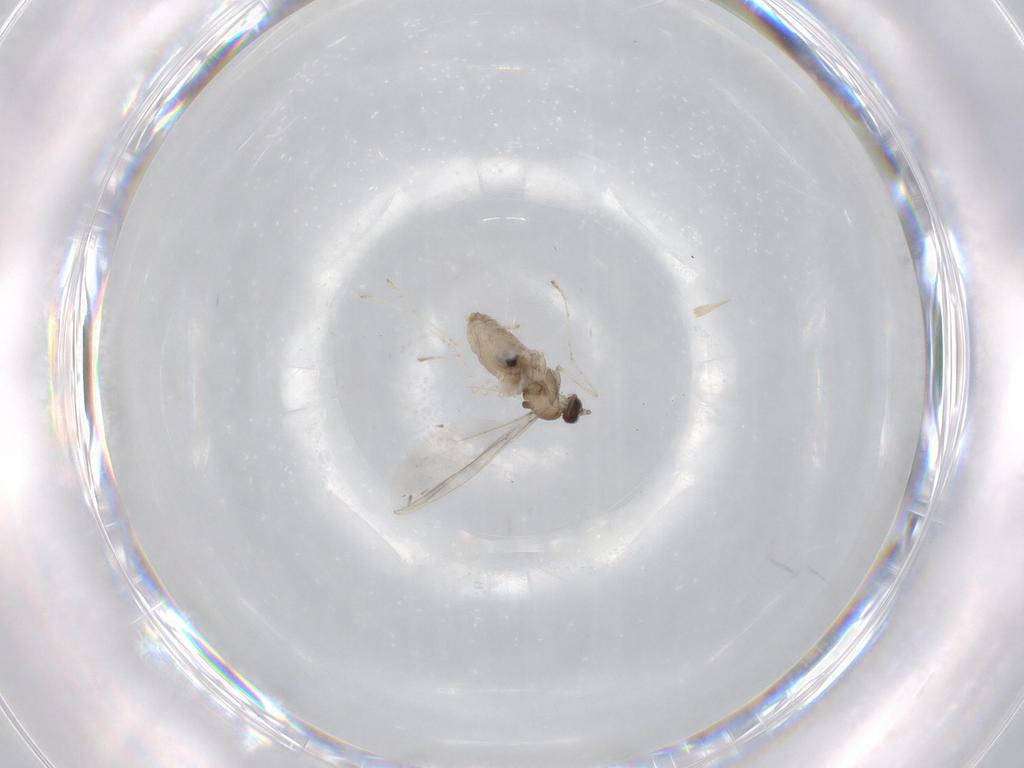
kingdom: Animalia
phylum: Arthropoda
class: Insecta
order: Diptera
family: Cecidomyiidae
